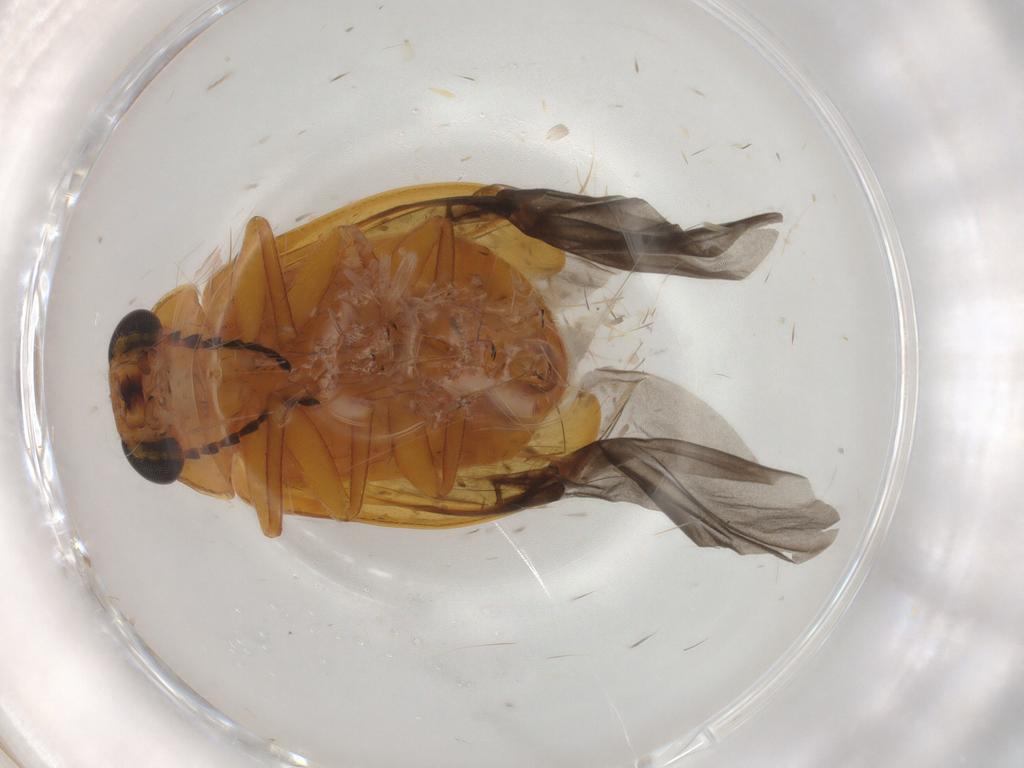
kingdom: Animalia
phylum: Arthropoda
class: Insecta
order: Coleoptera
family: Chrysomelidae
